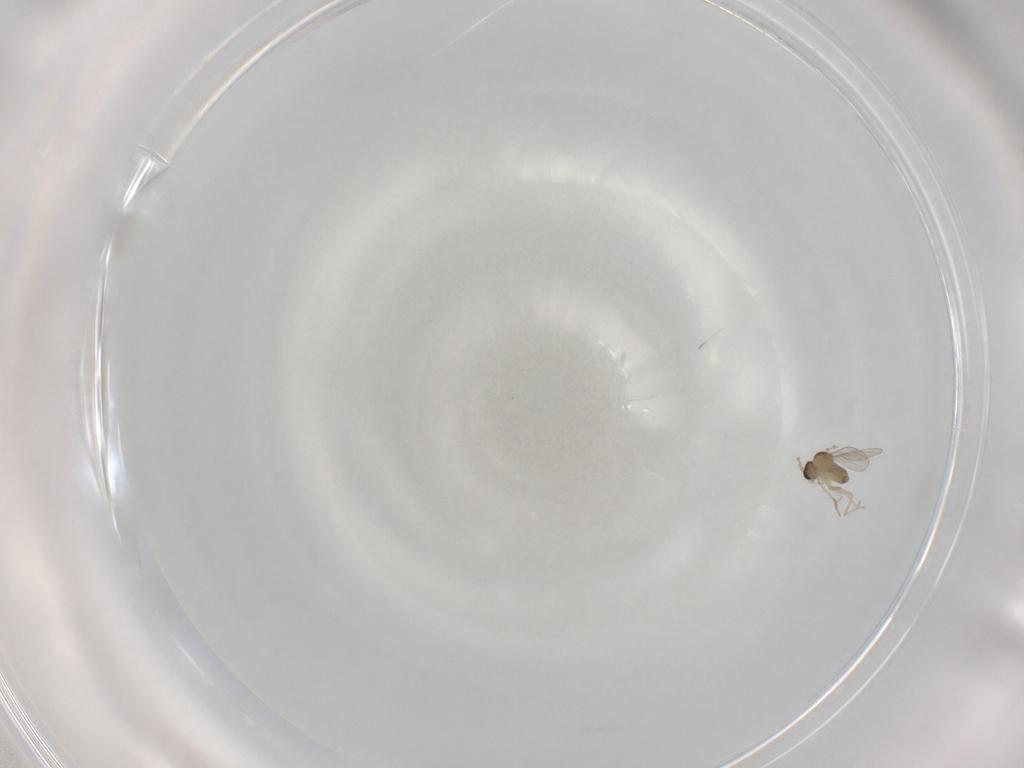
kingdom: Animalia
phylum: Arthropoda
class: Insecta
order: Diptera
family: Cecidomyiidae
